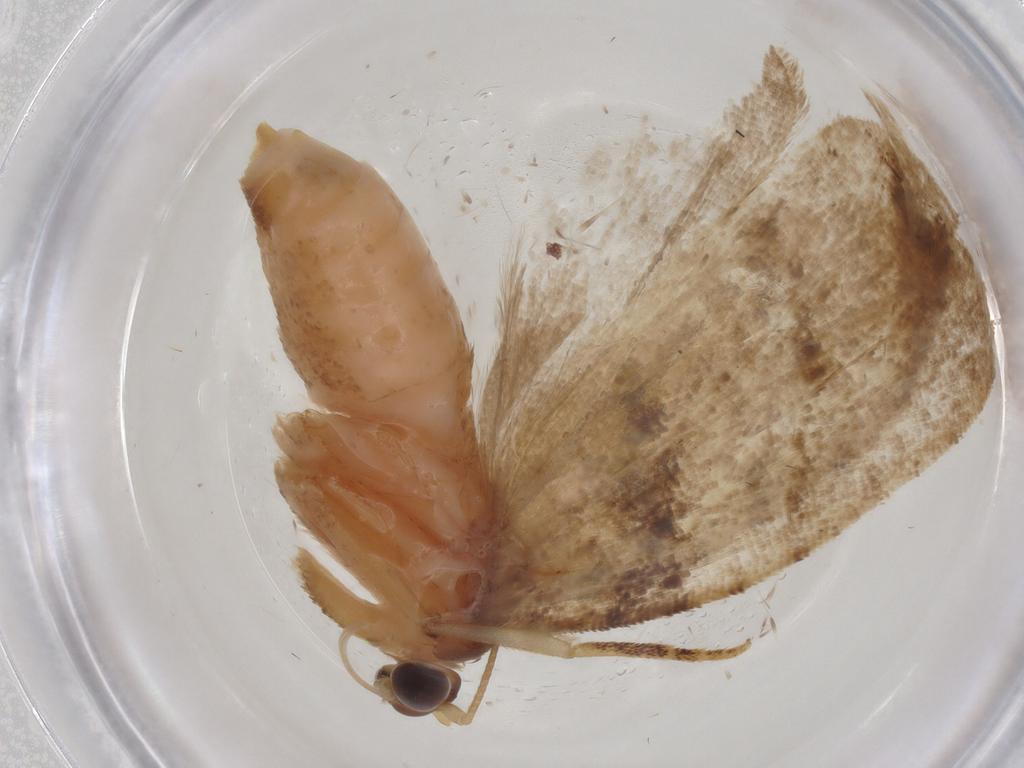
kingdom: Animalia
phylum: Arthropoda
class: Insecta
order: Lepidoptera
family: Tortricidae
